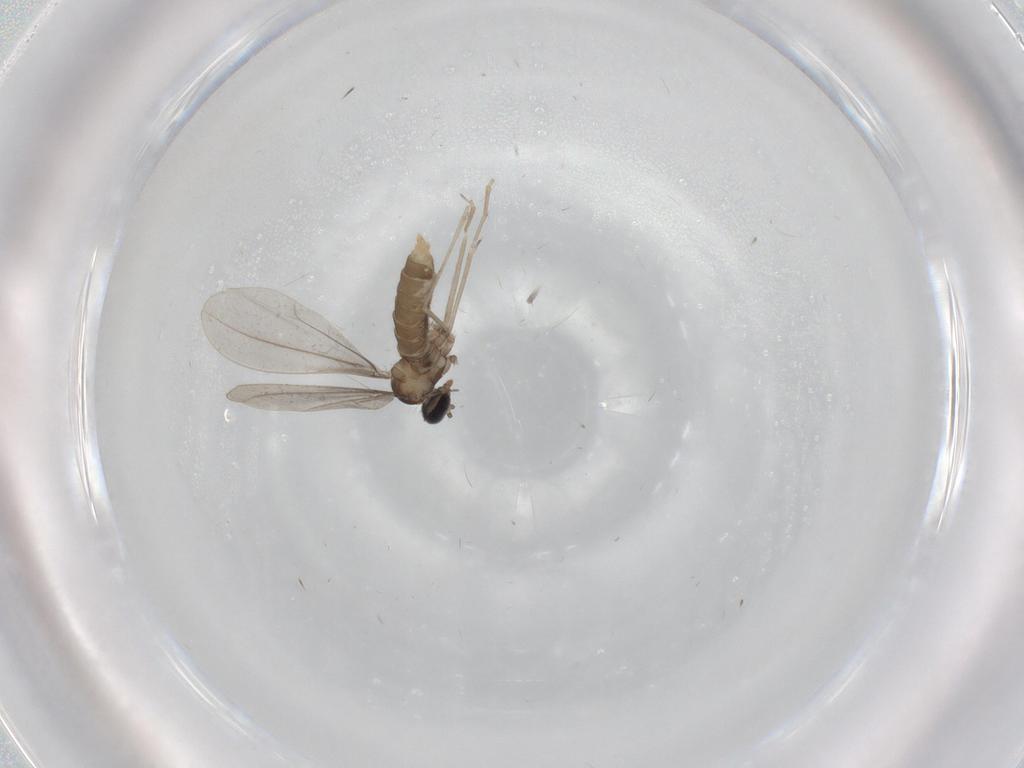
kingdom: Animalia
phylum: Arthropoda
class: Insecta
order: Diptera
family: Cecidomyiidae
